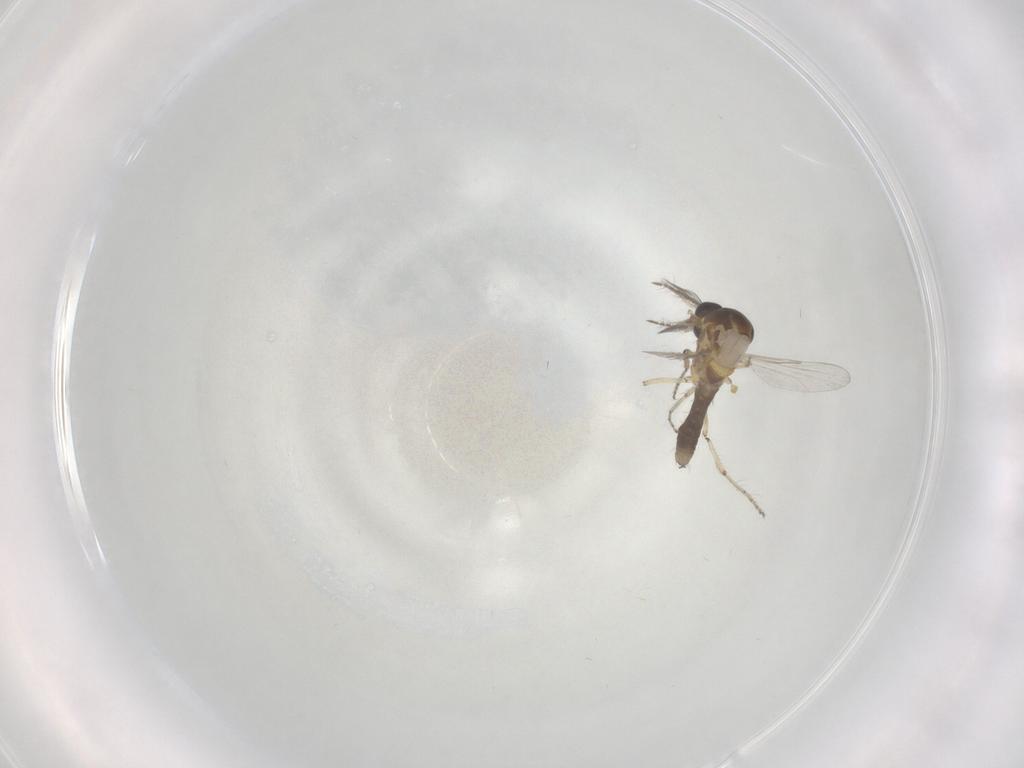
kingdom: Animalia
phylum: Arthropoda
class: Insecta
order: Diptera
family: Ceratopogonidae
